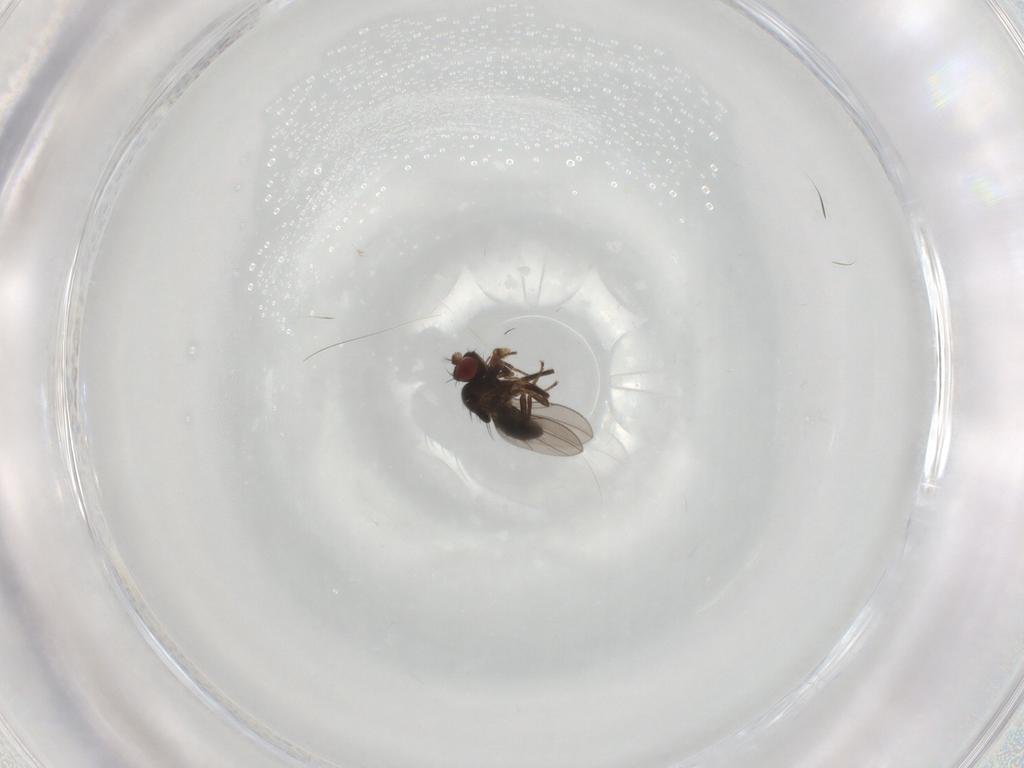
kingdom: Animalia
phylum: Arthropoda
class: Insecta
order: Diptera
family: Ephydridae
